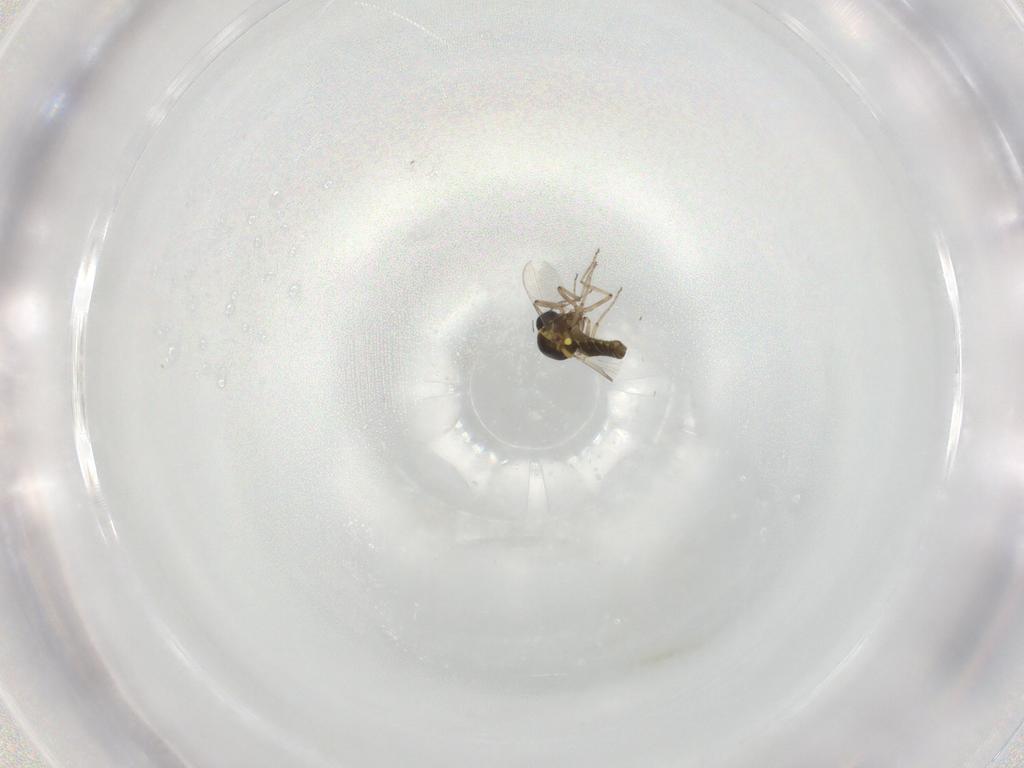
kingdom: Animalia
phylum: Arthropoda
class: Insecta
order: Diptera
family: Ceratopogonidae
